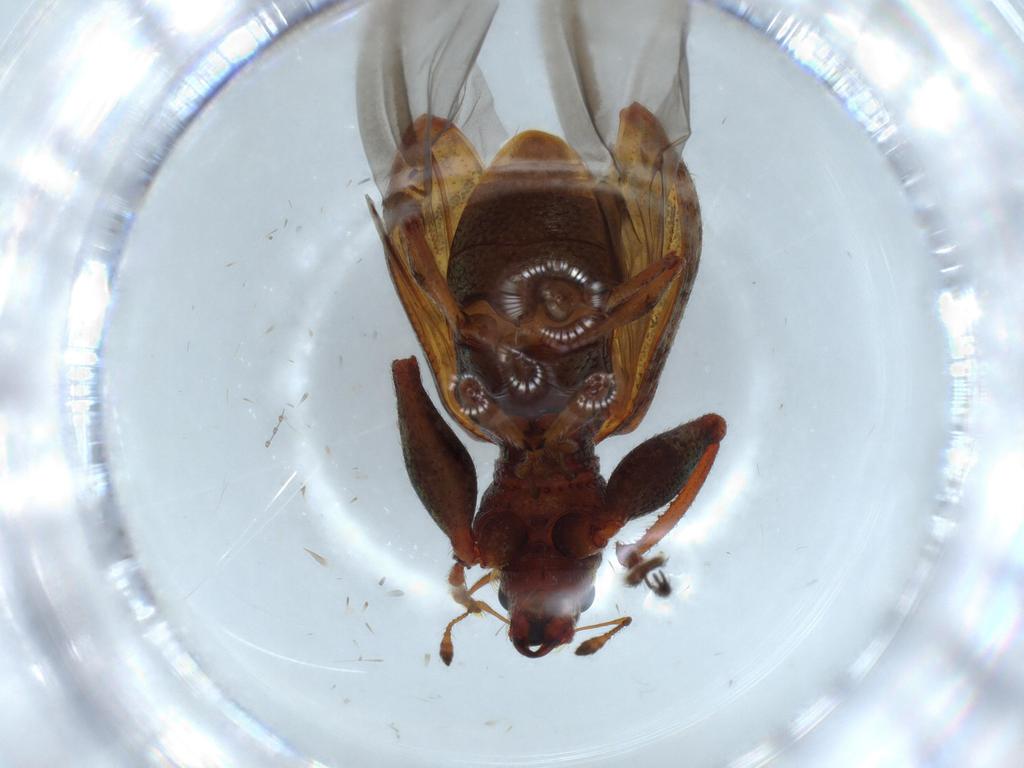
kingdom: Animalia
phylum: Arthropoda
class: Insecta
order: Coleoptera
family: Curculionidae
